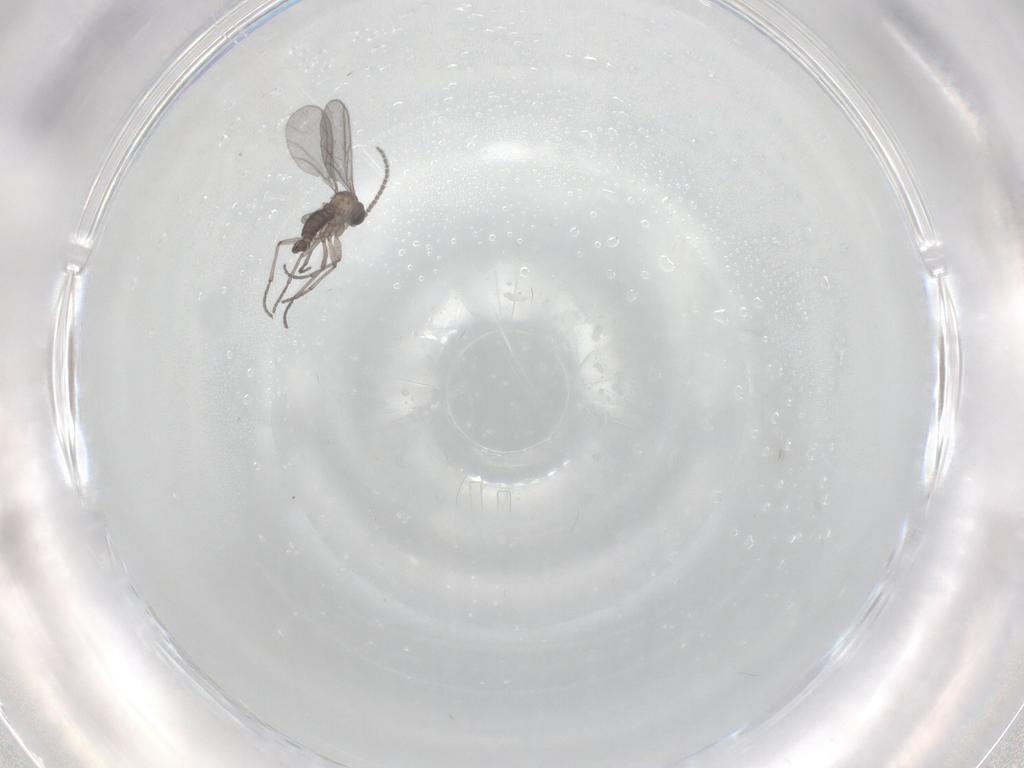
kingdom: Animalia
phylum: Arthropoda
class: Insecta
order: Diptera
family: Sciaridae
